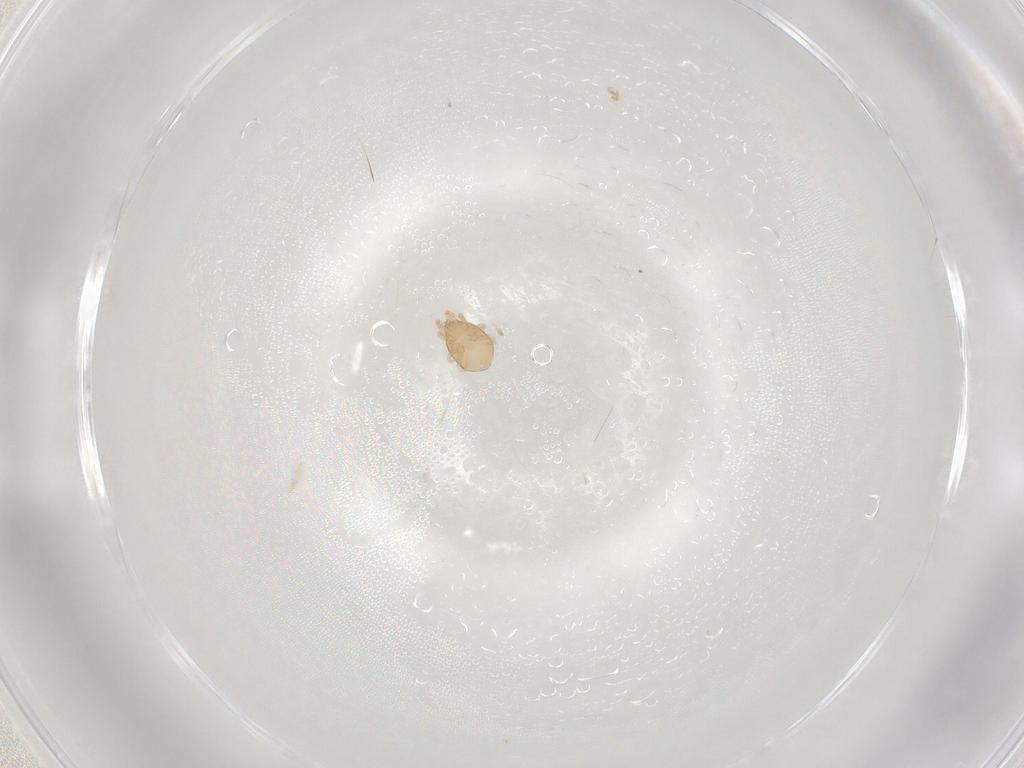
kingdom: Animalia
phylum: Arthropoda
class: Arachnida
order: Mesostigmata
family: Melicharidae
